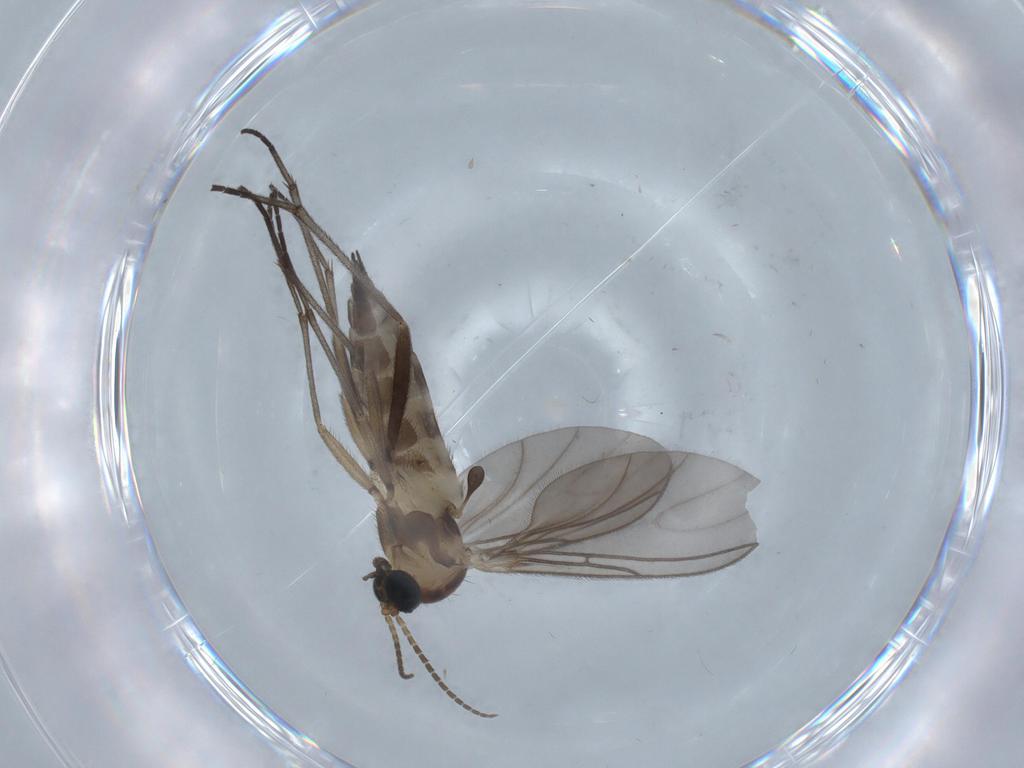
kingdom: Animalia
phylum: Arthropoda
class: Insecta
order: Diptera
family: Sciaridae
